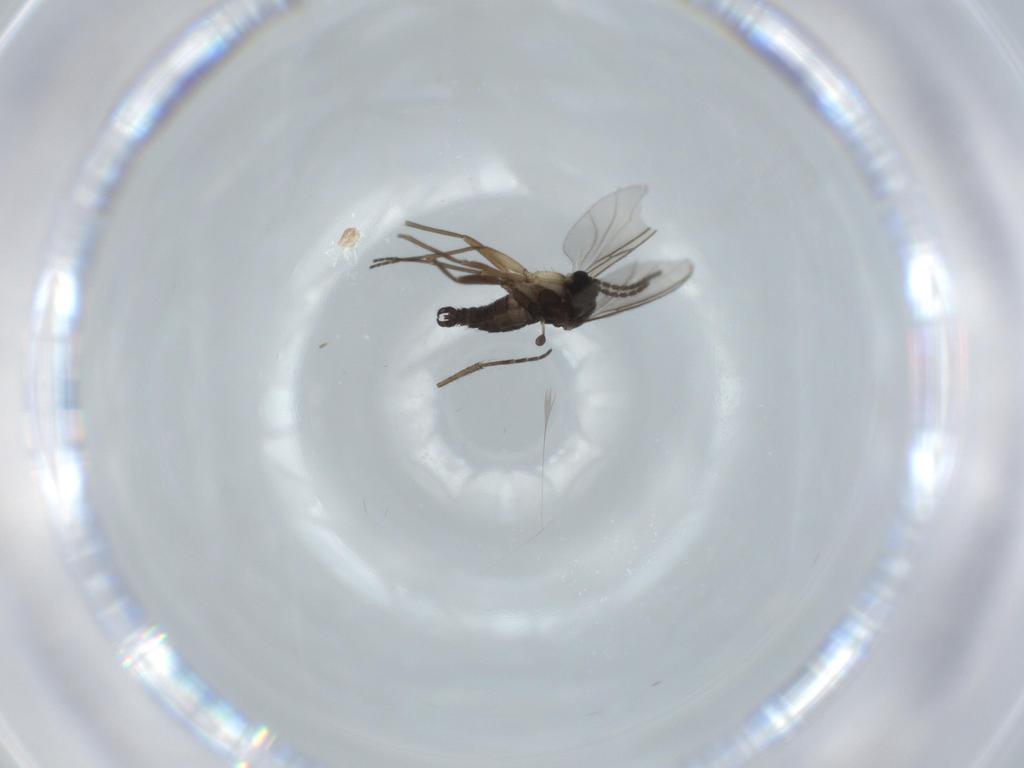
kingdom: Animalia
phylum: Arthropoda
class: Insecta
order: Diptera
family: Sciaridae
